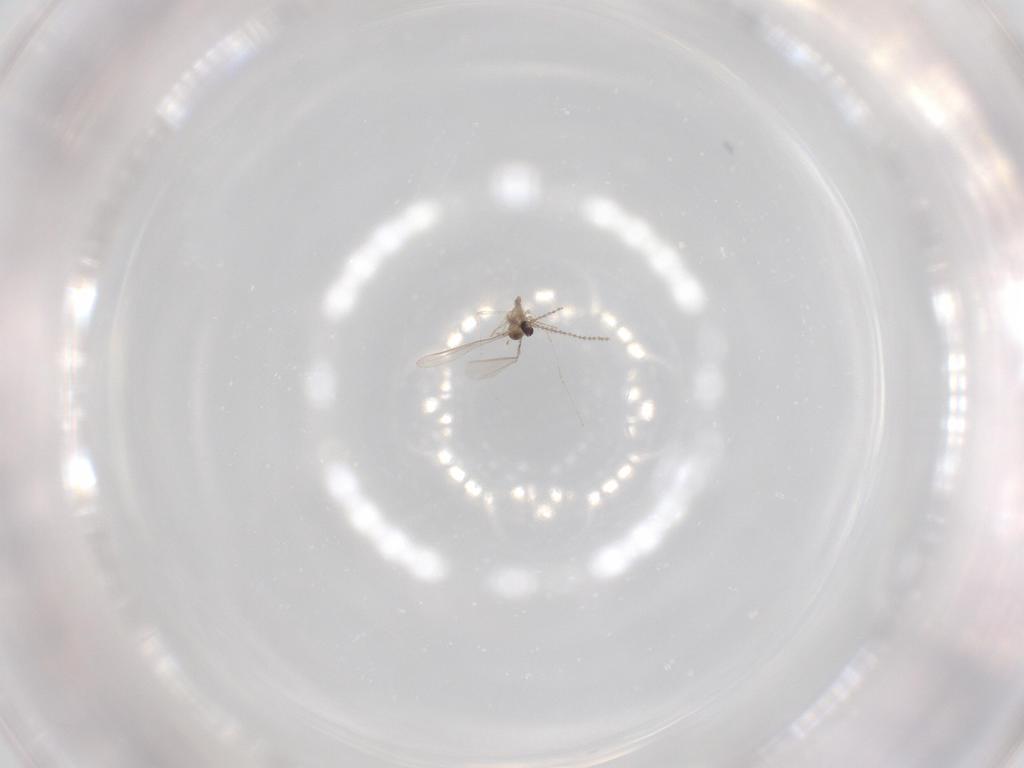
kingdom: Animalia
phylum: Arthropoda
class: Insecta
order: Diptera
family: Cecidomyiidae
